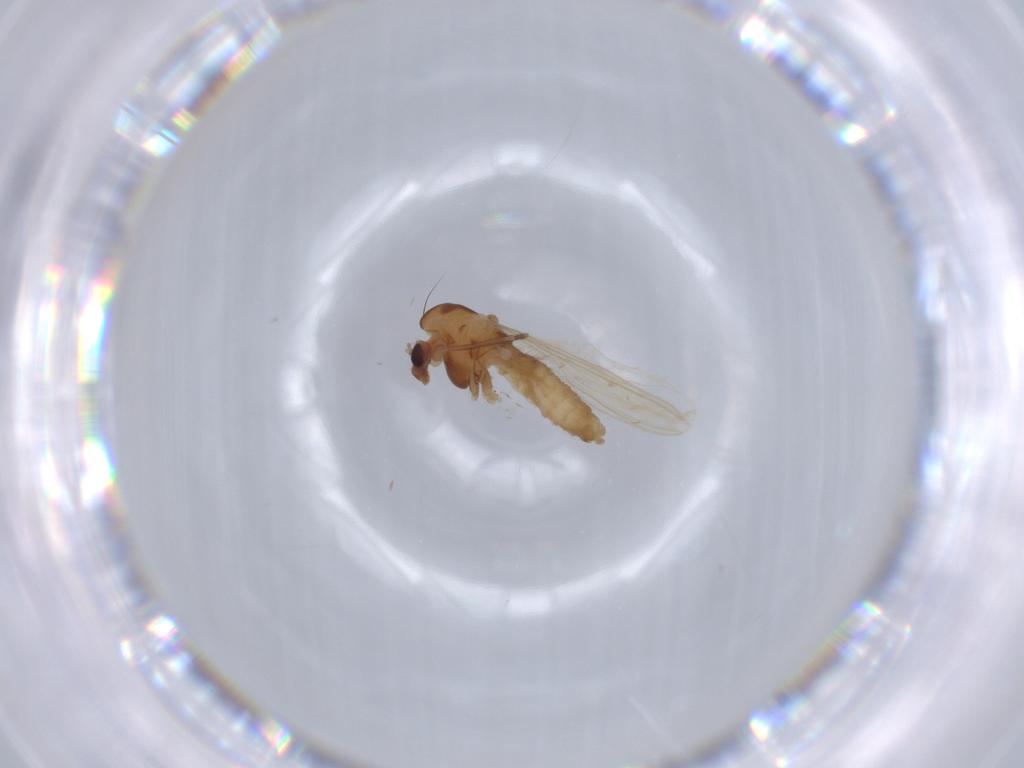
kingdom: Animalia
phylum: Arthropoda
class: Insecta
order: Diptera
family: Chironomidae
